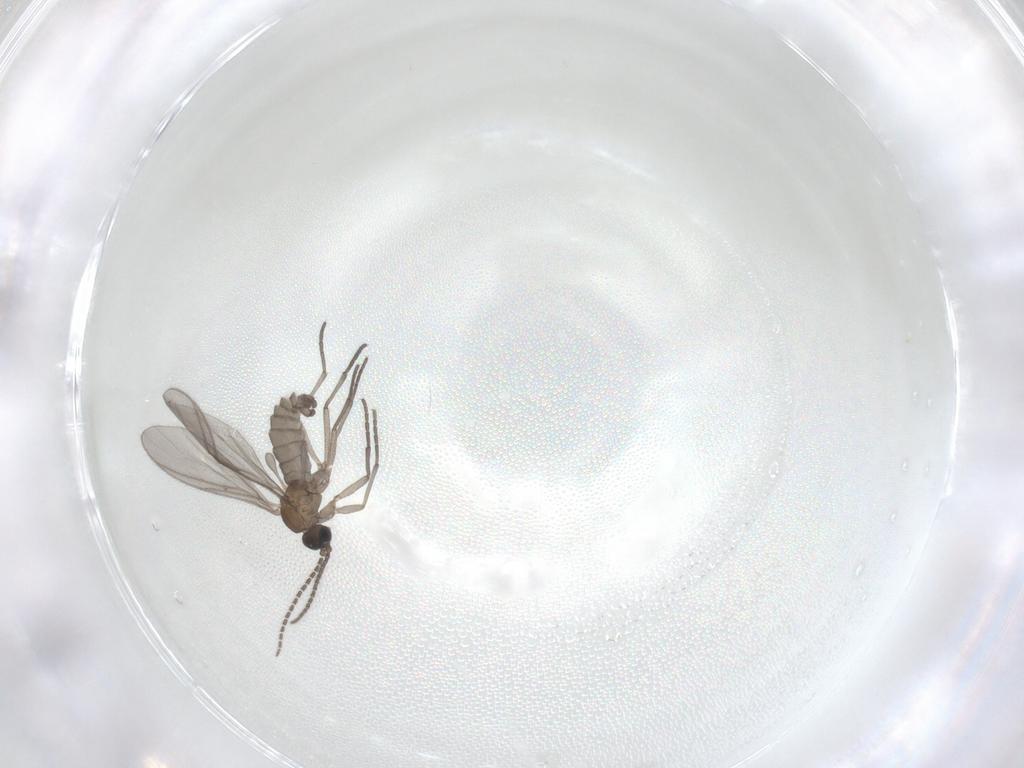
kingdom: Animalia
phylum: Arthropoda
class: Insecta
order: Diptera
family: Sciaridae
